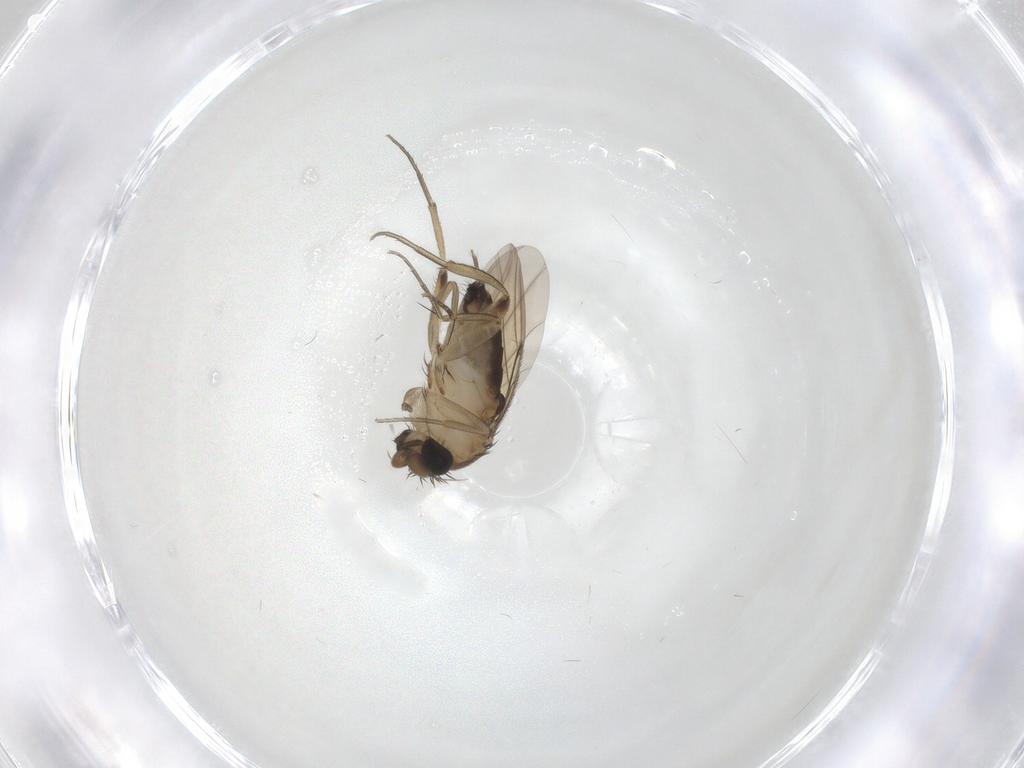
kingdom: Animalia
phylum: Arthropoda
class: Insecta
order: Diptera
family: Phoridae
